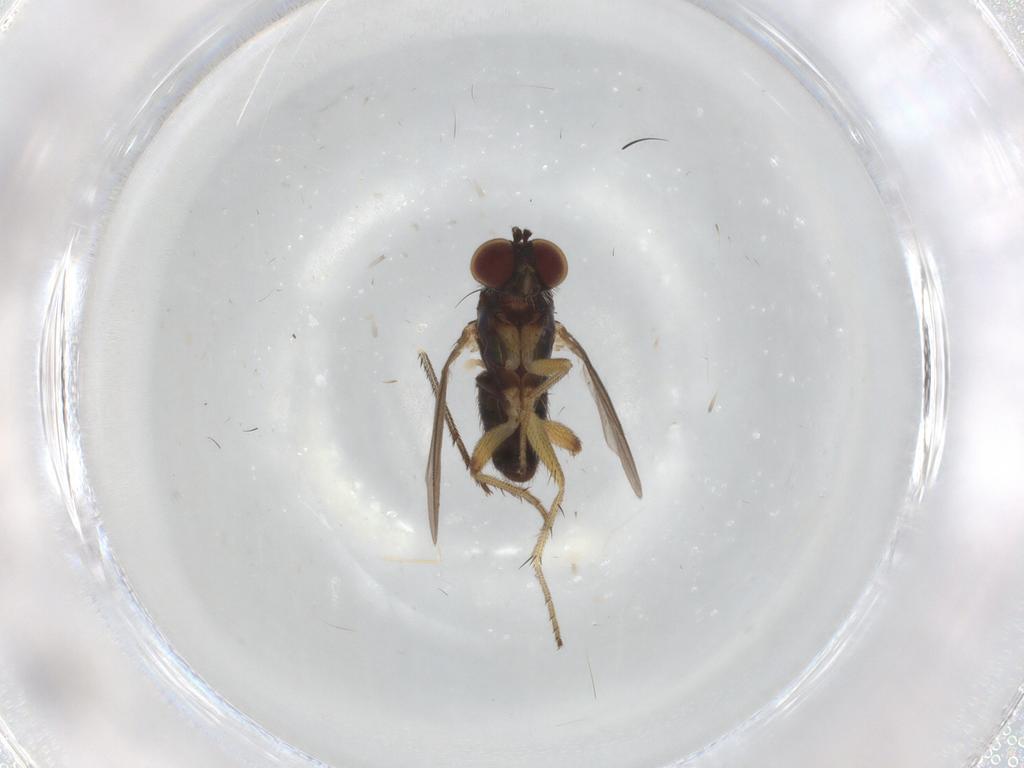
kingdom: Animalia
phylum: Arthropoda
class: Insecta
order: Diptera
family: Dolichopodidae
